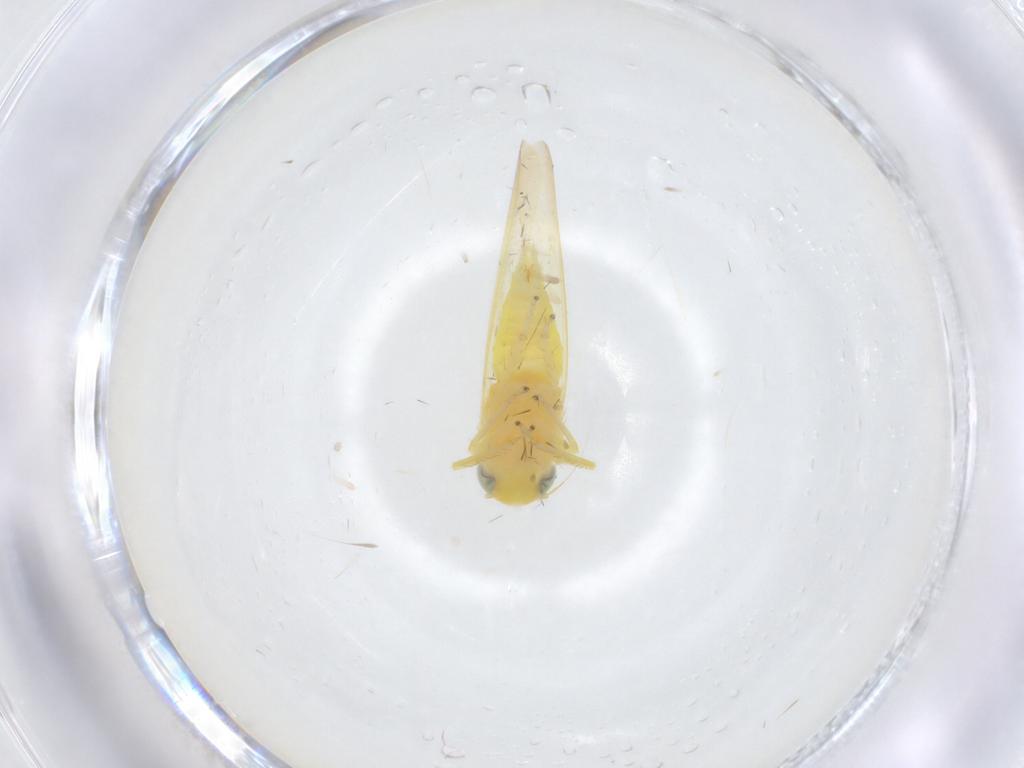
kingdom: Animalia
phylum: Arthropoda
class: Insecta
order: Hemiptera
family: Cicadellidae
